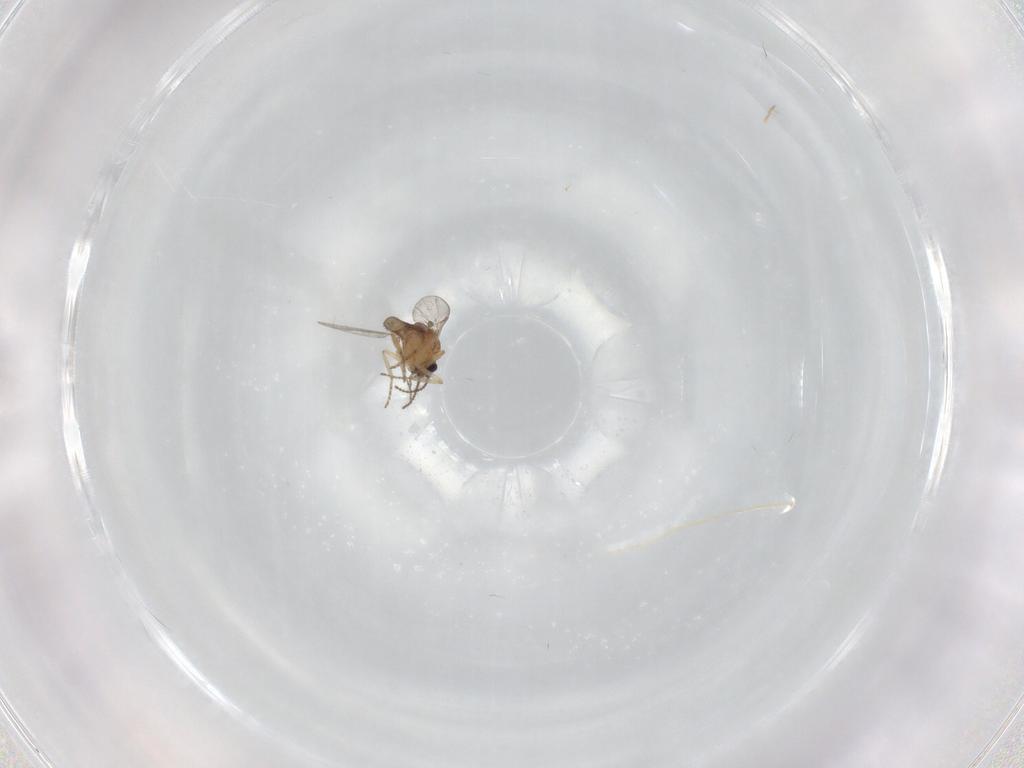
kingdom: Animalia
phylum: Arthropoda
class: Insecta
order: Diptera
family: Ceratopogonidae
